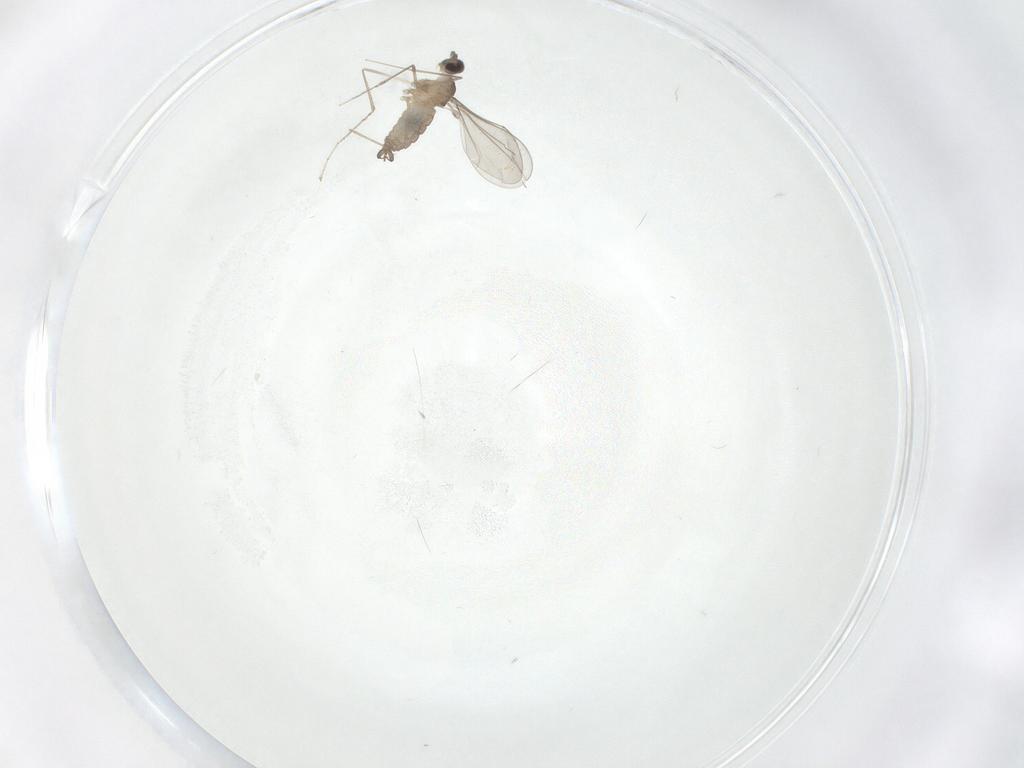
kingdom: Animalia
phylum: Arthropoda
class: Insecta
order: Diptera
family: Cecidomyiidae
